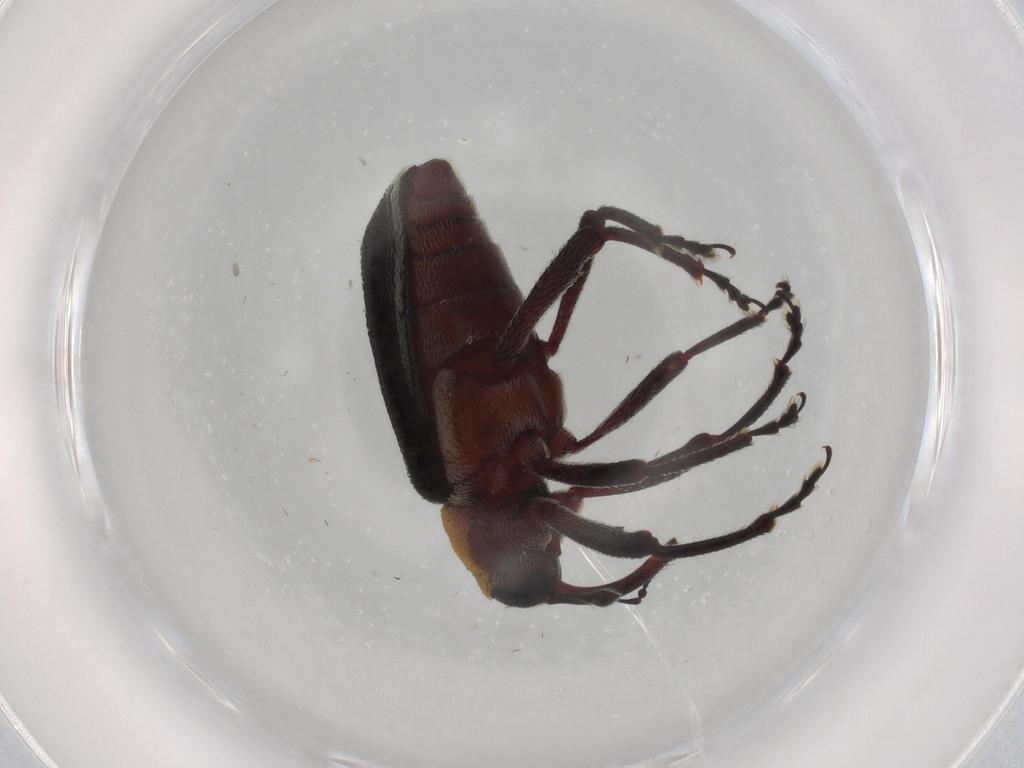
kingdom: Animalia
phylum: Arthropoda
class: Insecta
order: Coleoptera
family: Curculionidae
